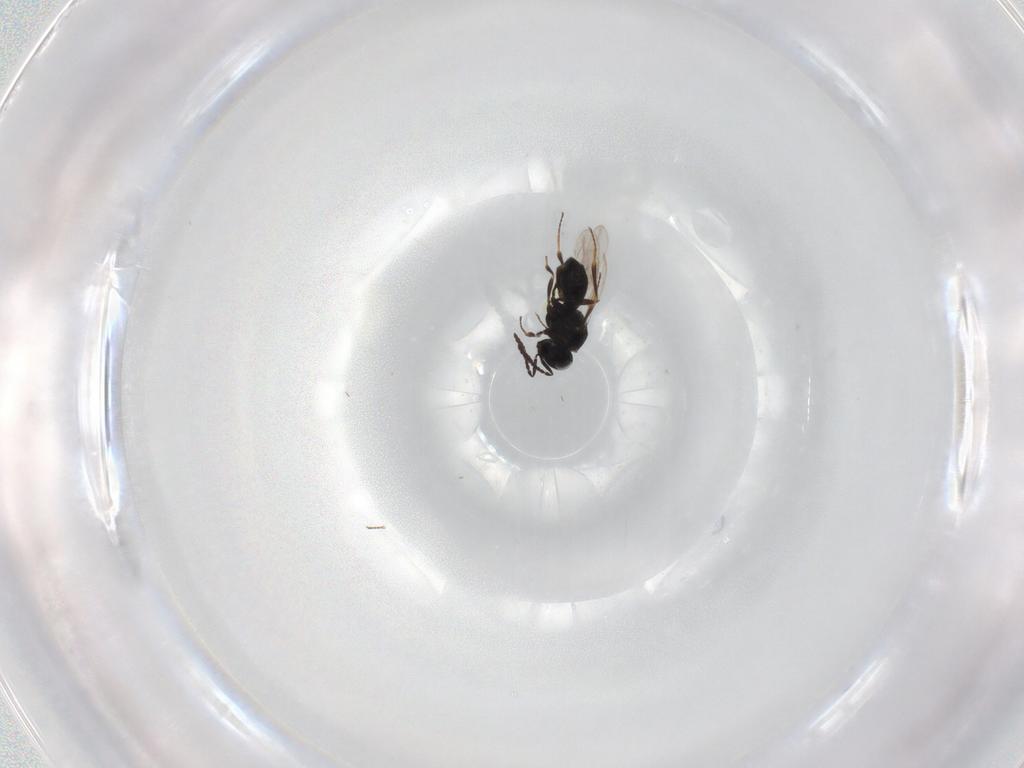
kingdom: Animalia
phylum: Arthropoda
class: Insecta
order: Hymenoptera
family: Scelionidae
